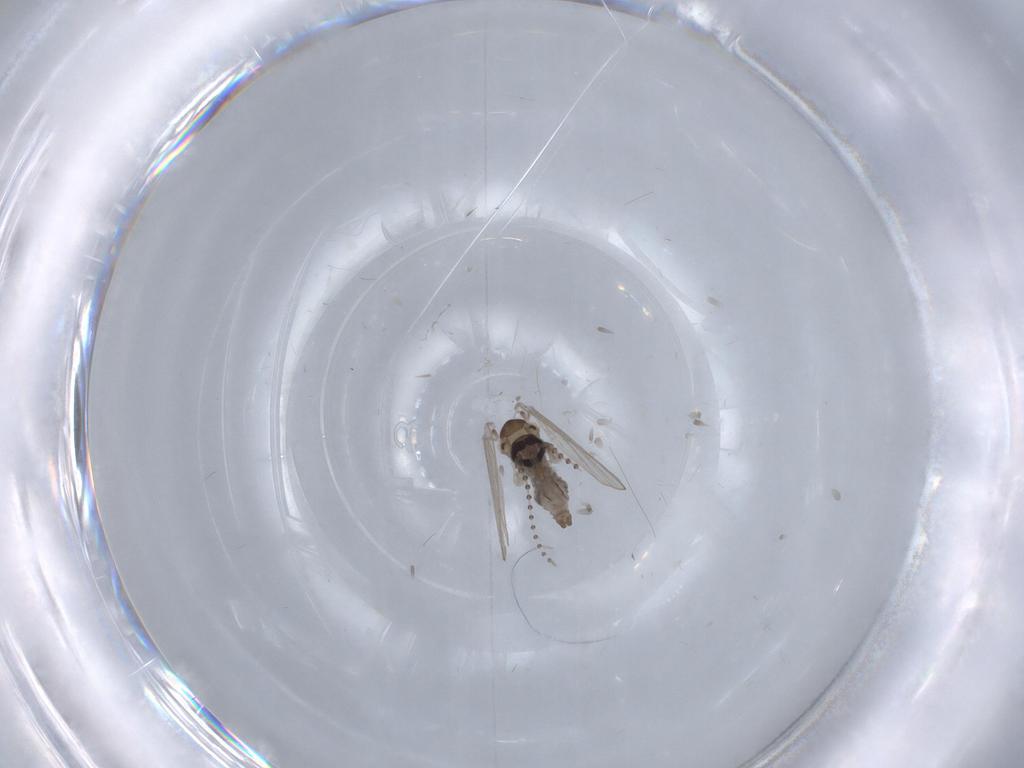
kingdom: Animalia
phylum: Arthropoda
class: Insecta
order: Diptera
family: Psychodidae
